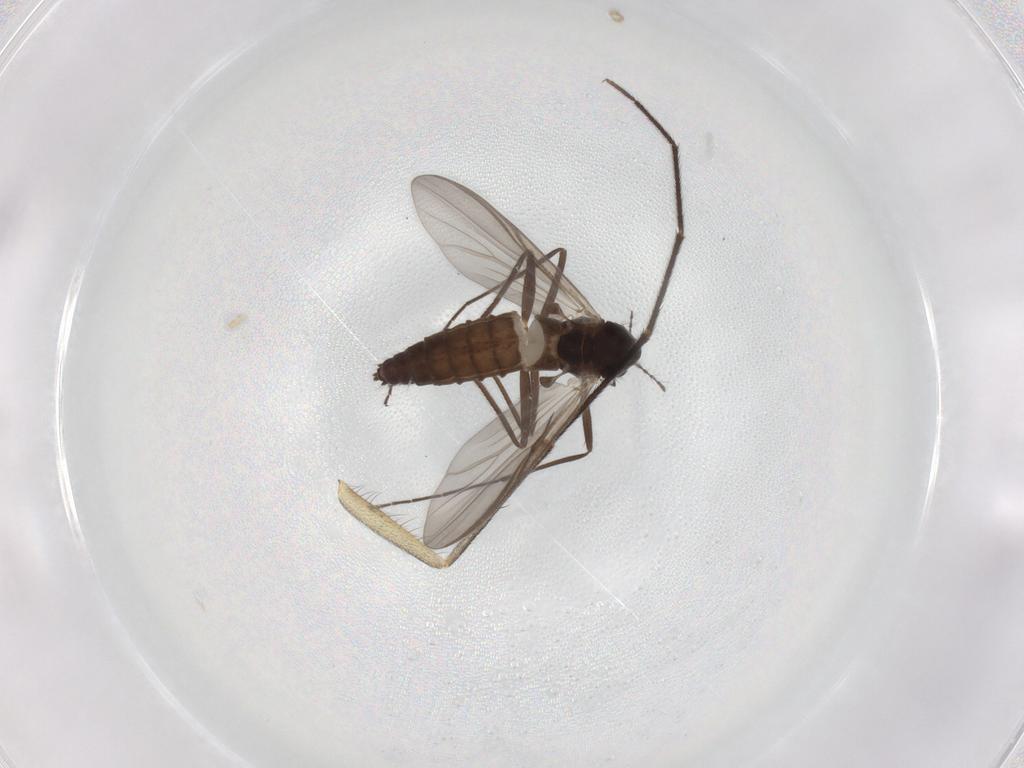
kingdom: Animalia
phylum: Arthropoda
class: Insecta
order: Diptera
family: Chironomidae
